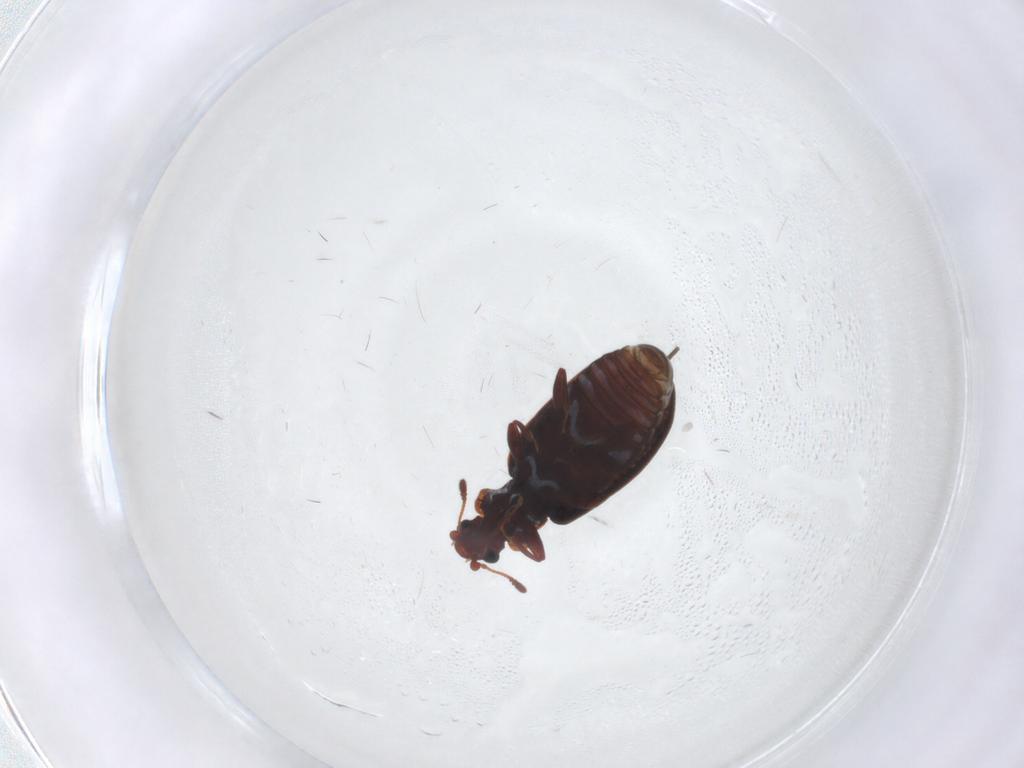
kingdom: Animalia
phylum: Arthropoda
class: Insecta
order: Coleoptera
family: Latridiidae
